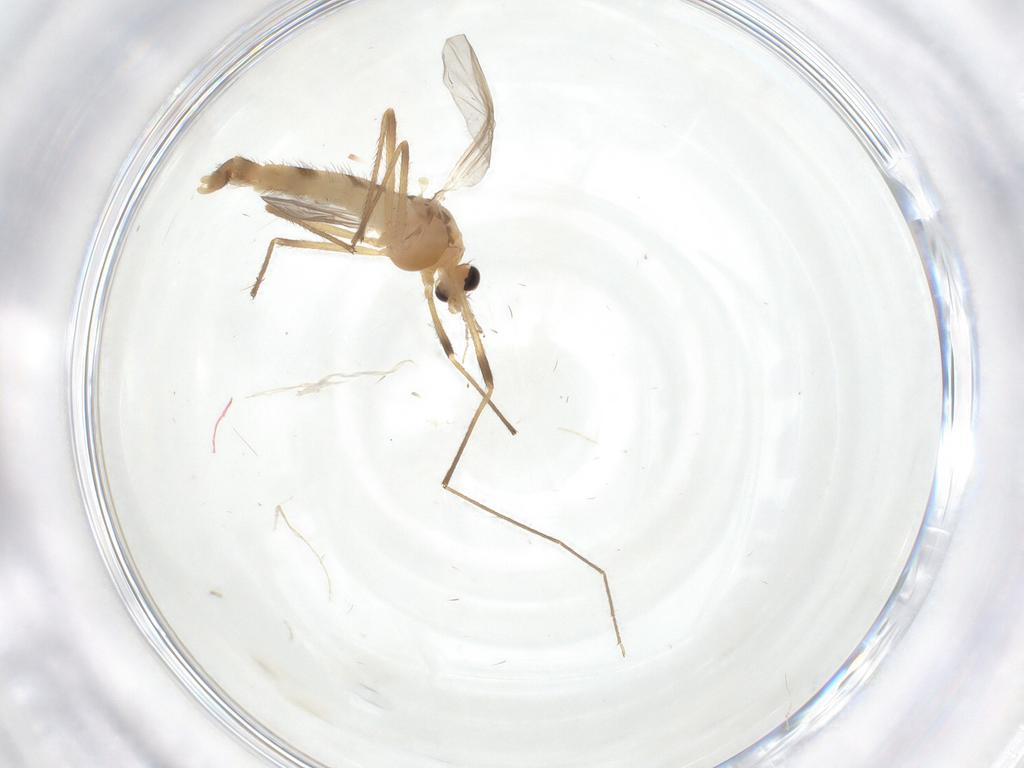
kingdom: Animalia
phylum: Arthropoda
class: Insecta
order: Diptera
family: Chironomidae
